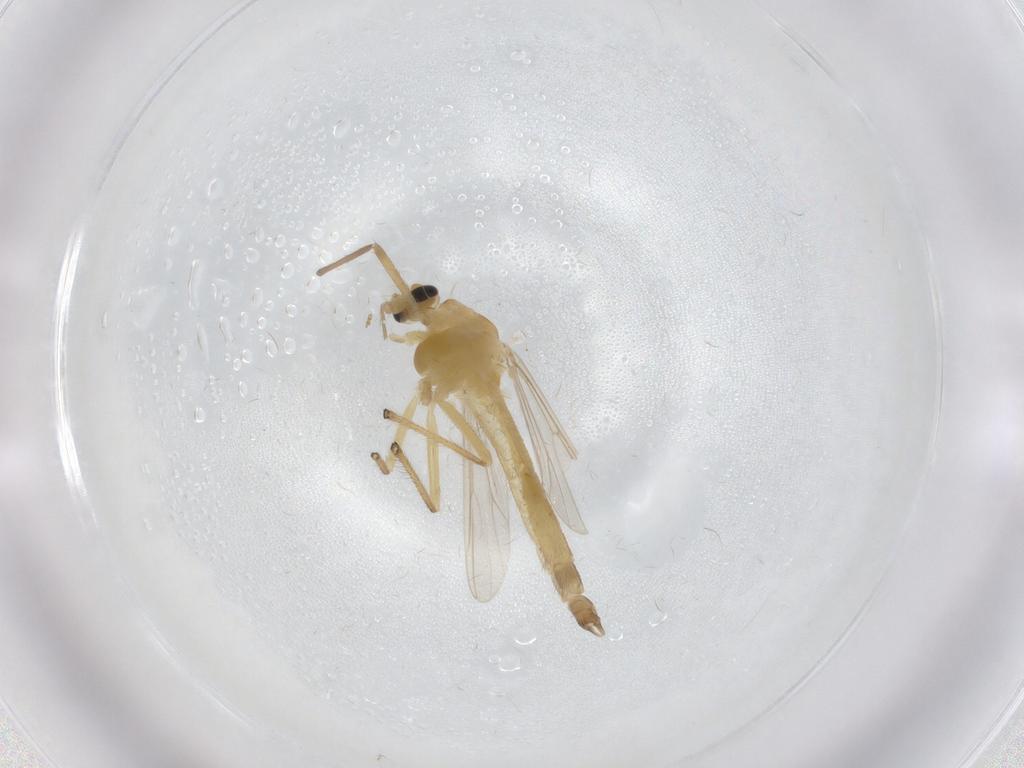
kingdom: Animalia
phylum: Arthropoda
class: Insecta
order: Diptera
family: Chironomidae
